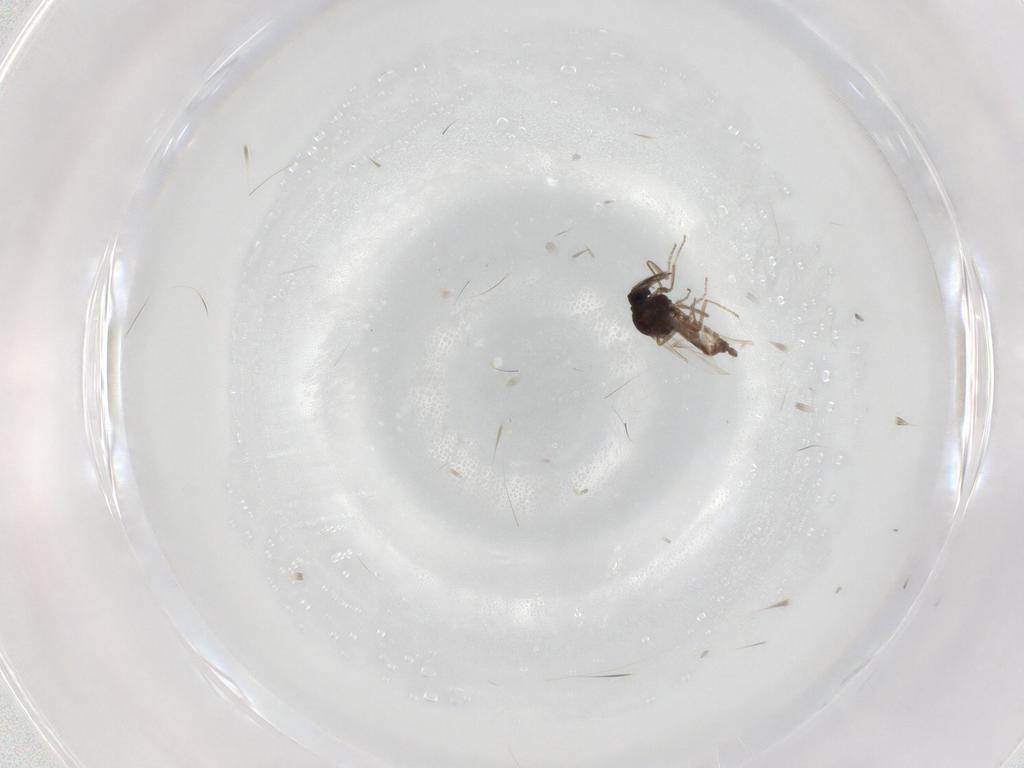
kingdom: Animalia
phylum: Arthropoda
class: Insecta
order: Diptera
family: Ceratopogonidae
